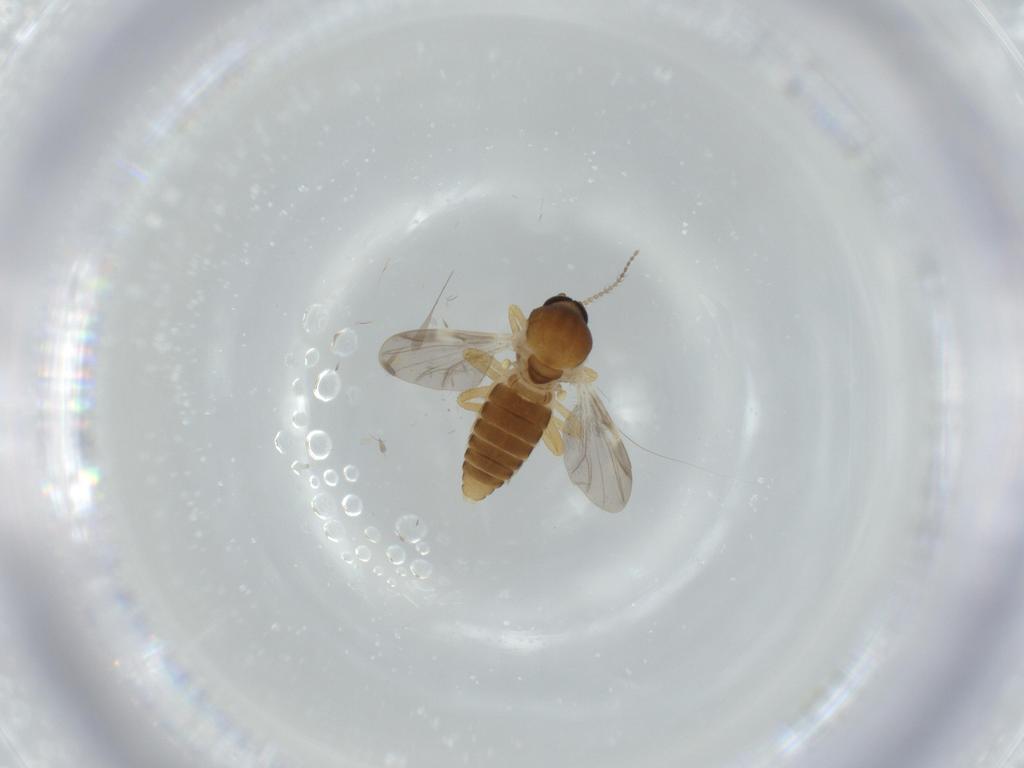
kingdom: Animalia
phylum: Arthropoda
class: Insecta
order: Diptera
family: Ceratopogonidae
